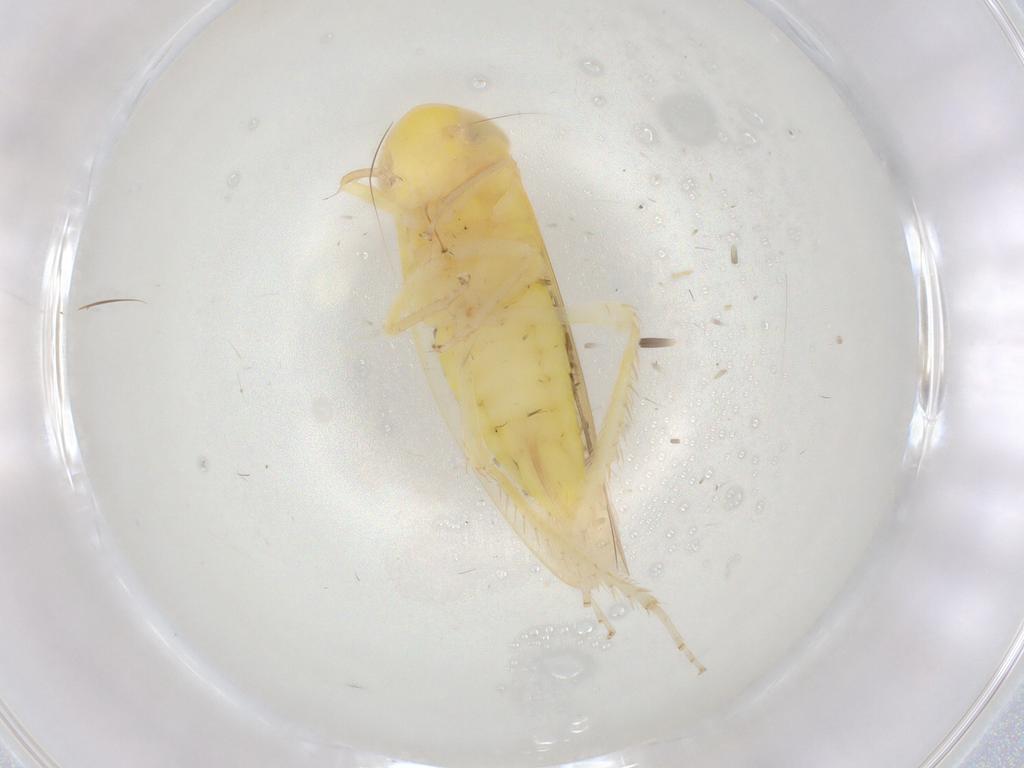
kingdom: Animalia
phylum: Arthropoda
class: Insecta
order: Hemiptera
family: Cicadellidae
